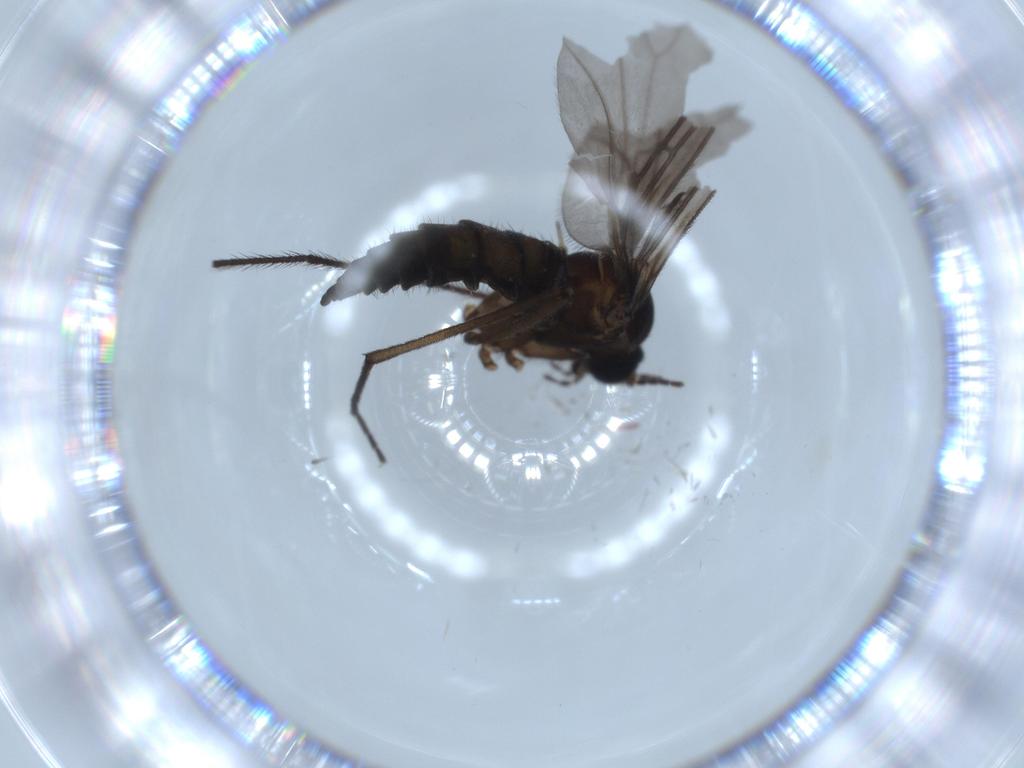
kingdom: Animalia
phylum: Arthropoda
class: Insecta
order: Diptera
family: Sciaridae
